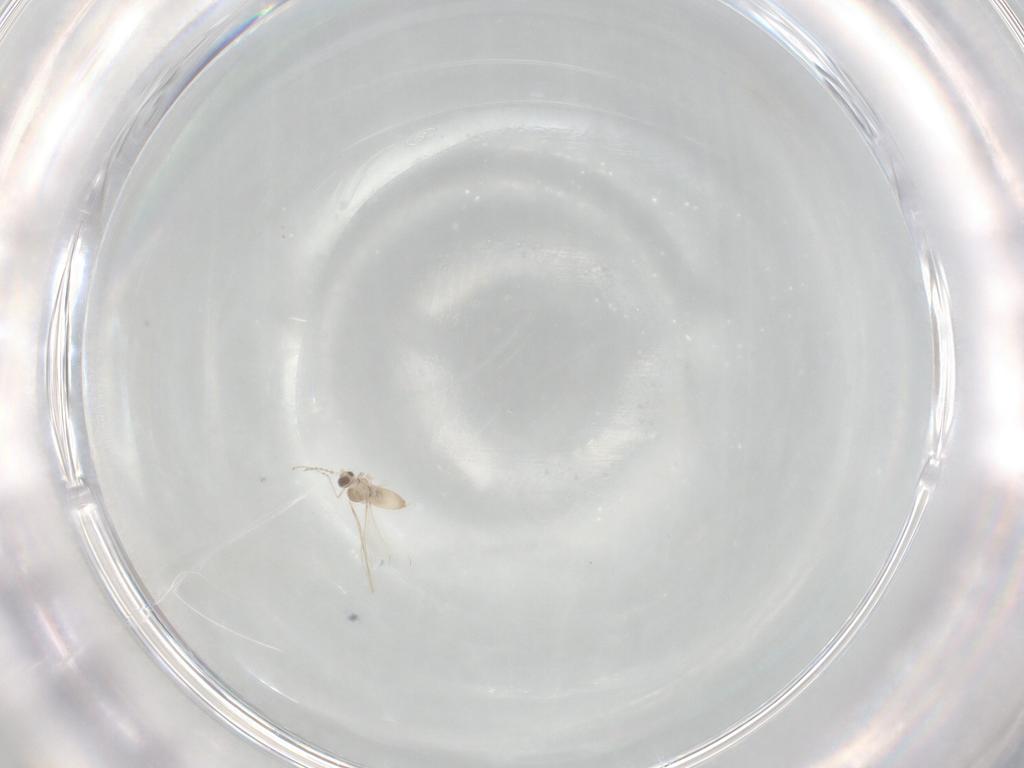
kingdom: Animalia
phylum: Arthropoda
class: Insecta
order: Diptera
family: Cecidomyiidae
